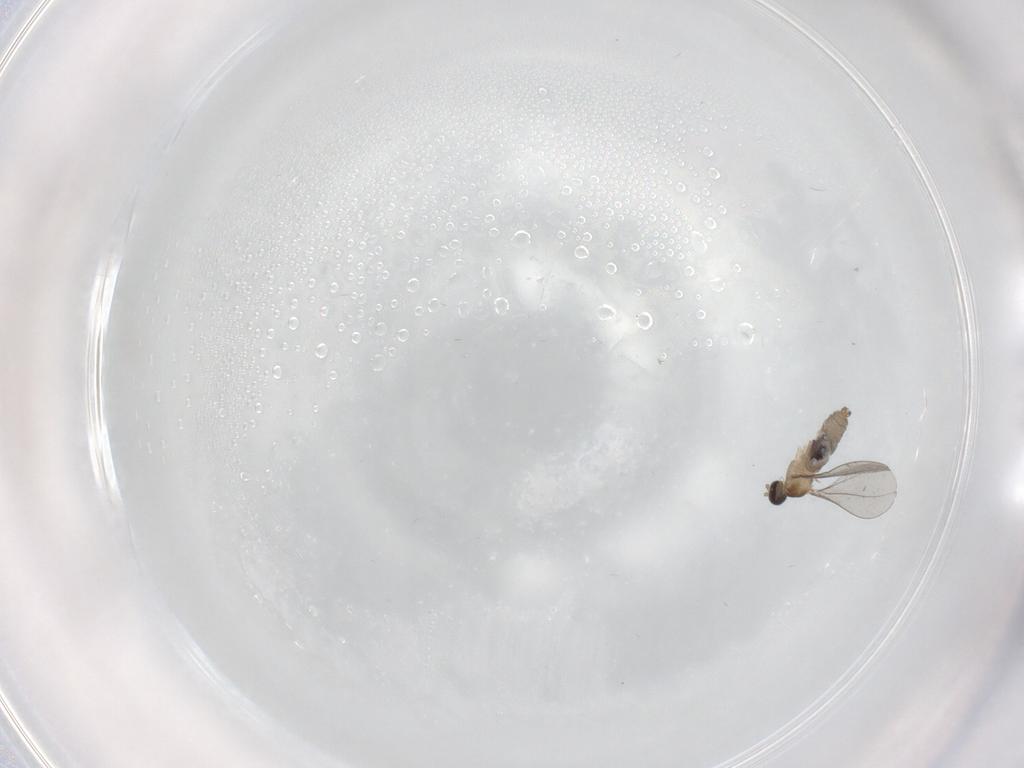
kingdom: Animalia
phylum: Arthropoda
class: Insecta
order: Diptera
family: Cecidomyiidae
